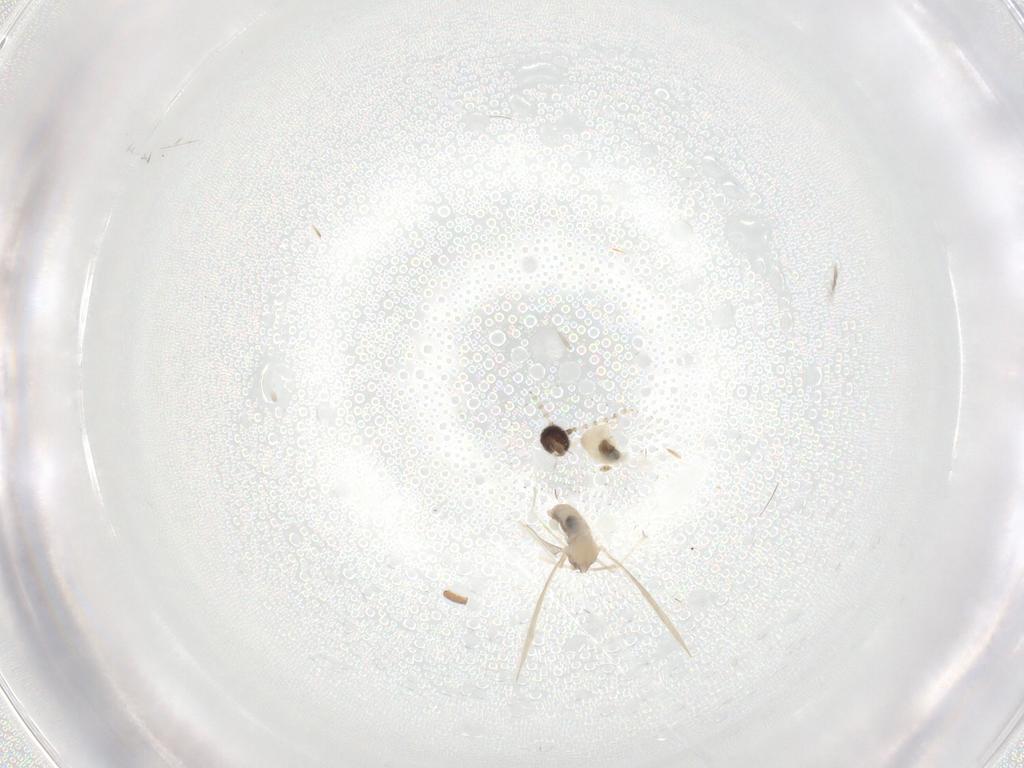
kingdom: Animalia
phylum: Arthropoda
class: Insecta
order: Diptera
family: Cecidomyiidae
